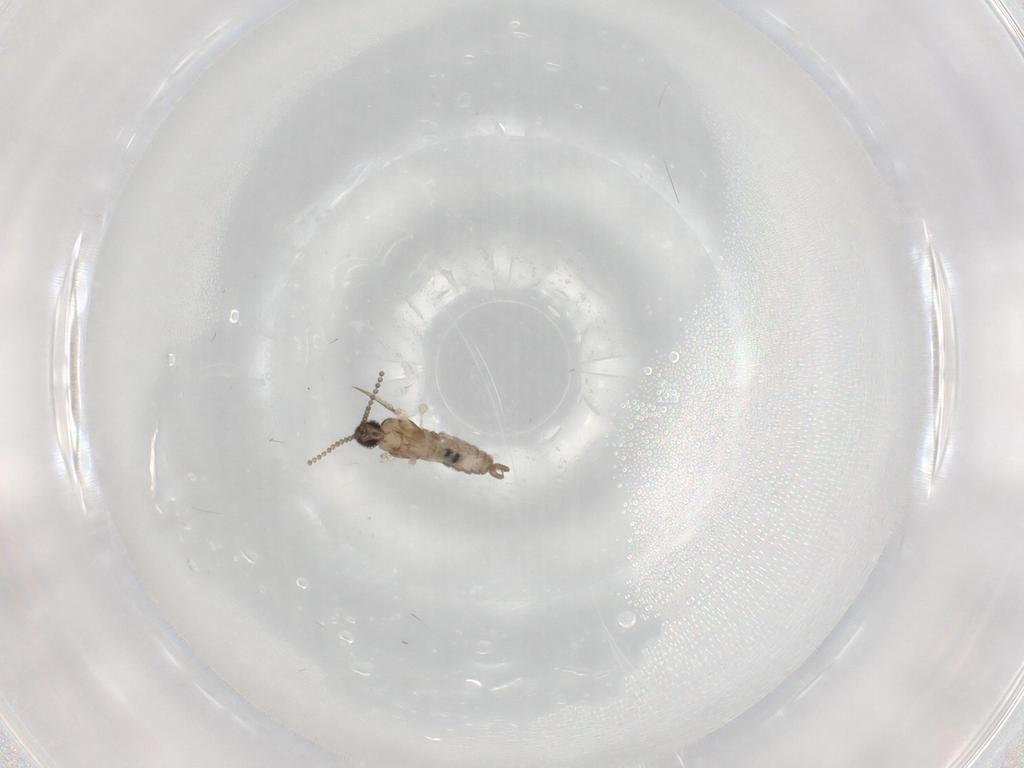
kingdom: Animalia
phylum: Arthropoda
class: Insecta
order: Diptera
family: Cecidomyiidae
